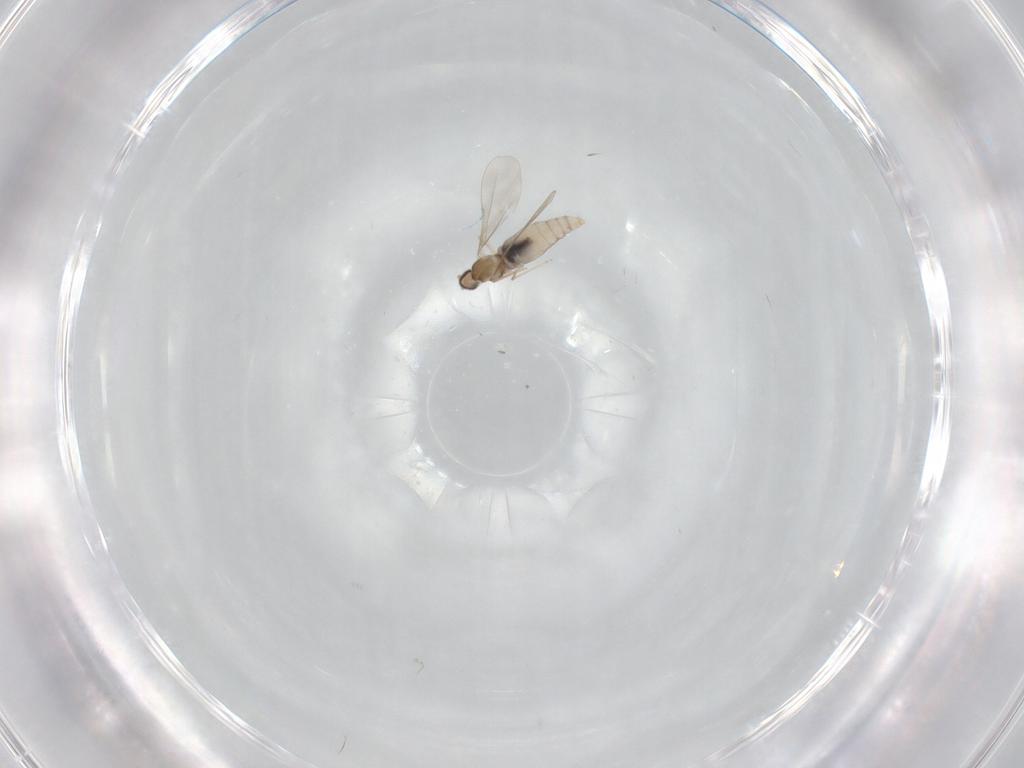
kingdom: Animalia
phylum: Arthropoda
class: Insecta
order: Diptera
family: Cecidomyiidae
